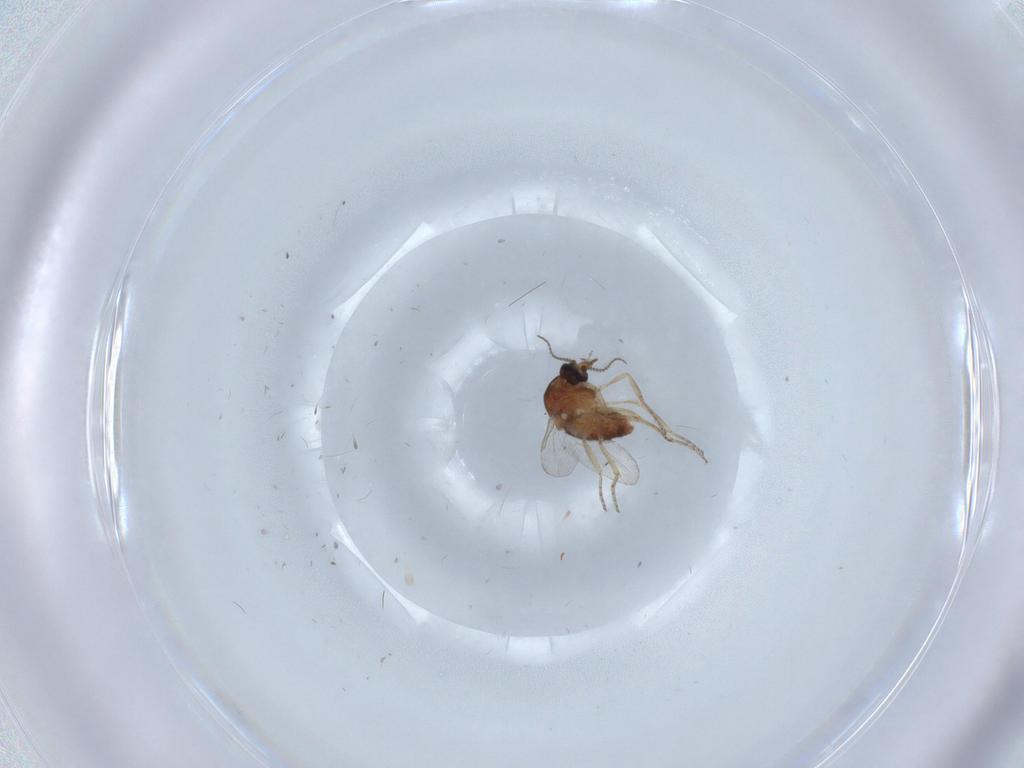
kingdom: Animalia
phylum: Arthropoda
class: Insecta
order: Diptera
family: Ceratopogonidae
